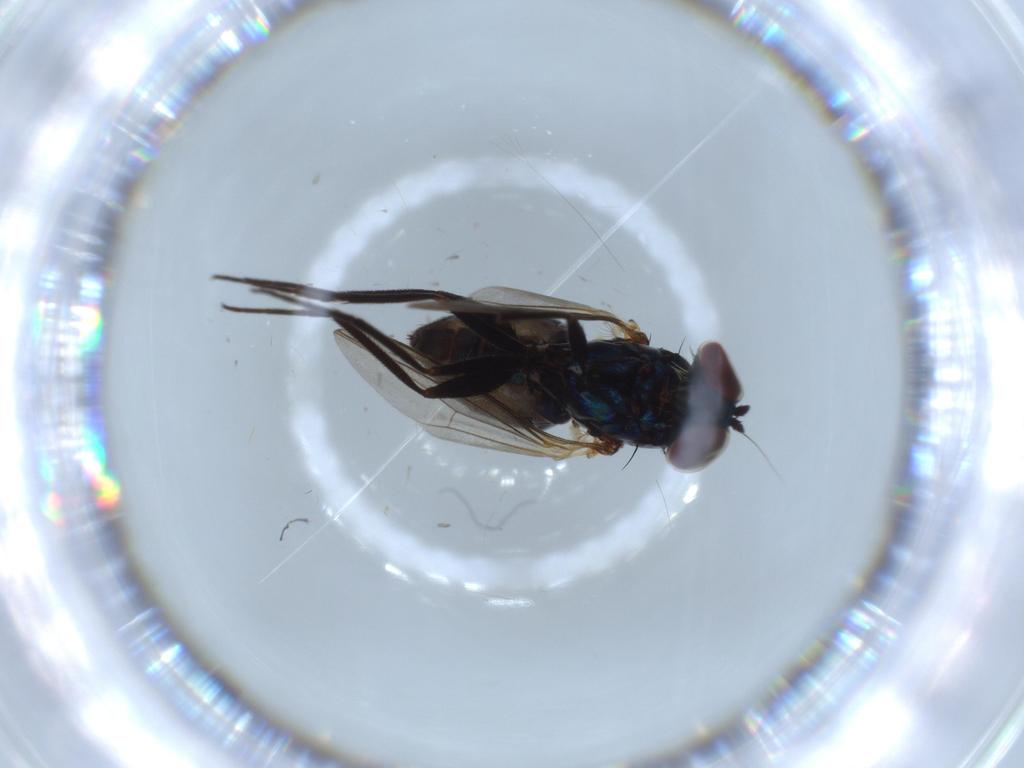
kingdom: Animalia
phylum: Arthropoda
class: Insecta
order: Diptera
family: Dolichopodidae
